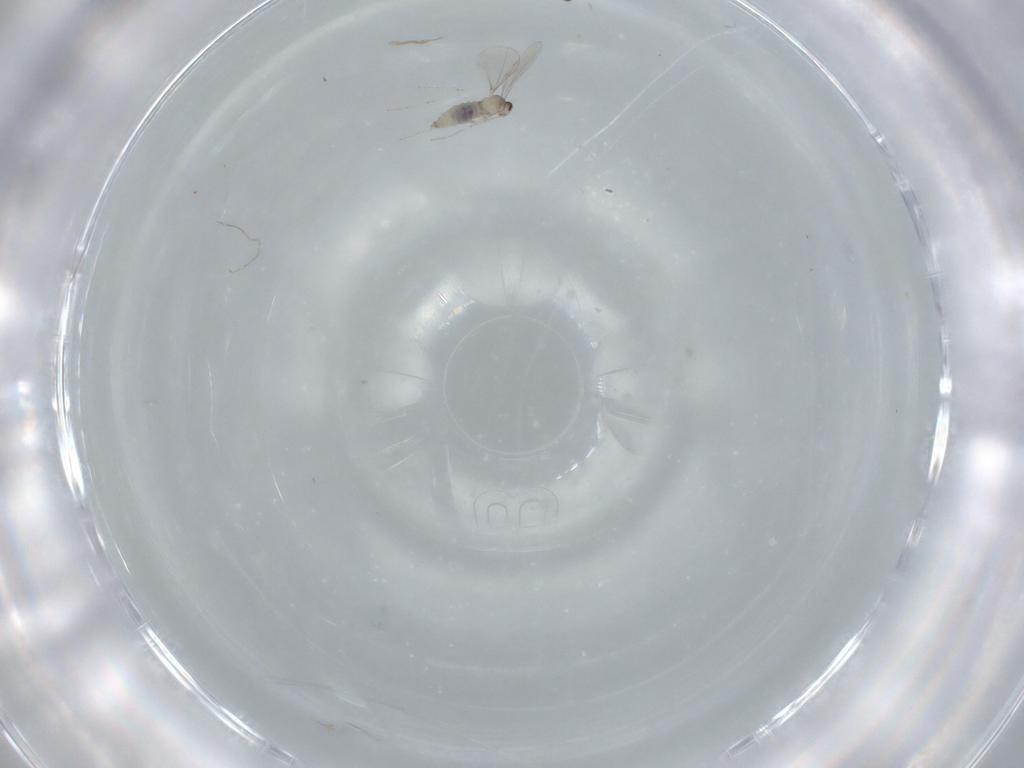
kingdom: Animalia
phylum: Arthropoda
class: Insecta
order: Diptera
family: Cecidomyiidae
